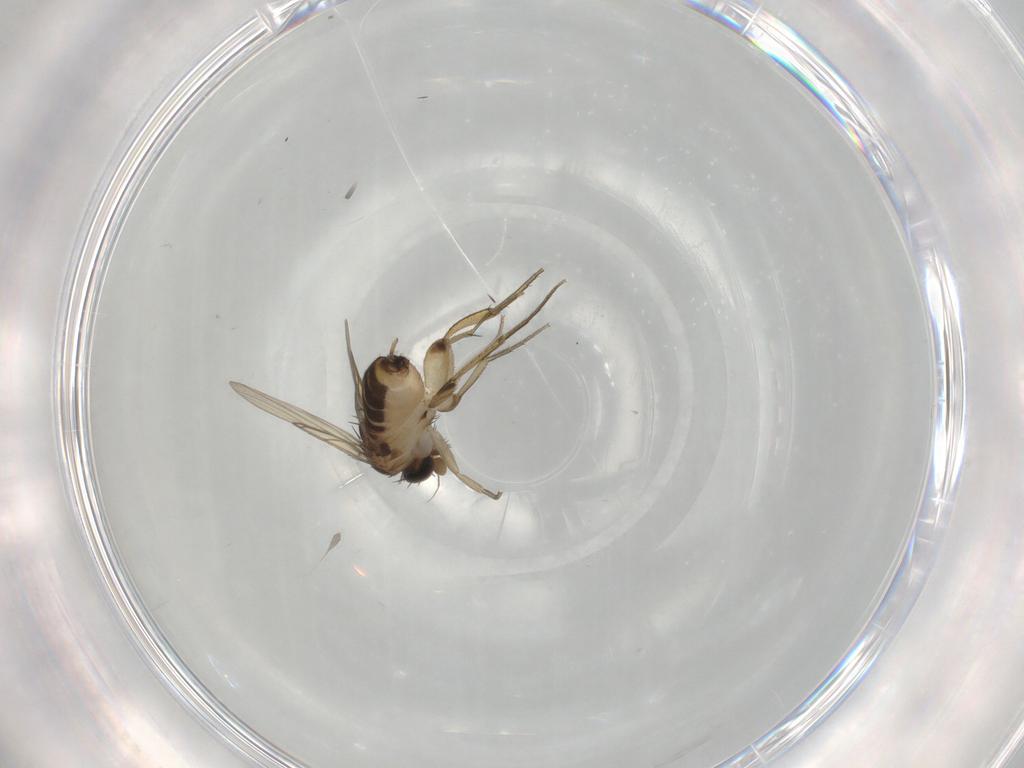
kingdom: Animalia
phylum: Arthropoda
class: Insecta
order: Diptera
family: Phoridae
